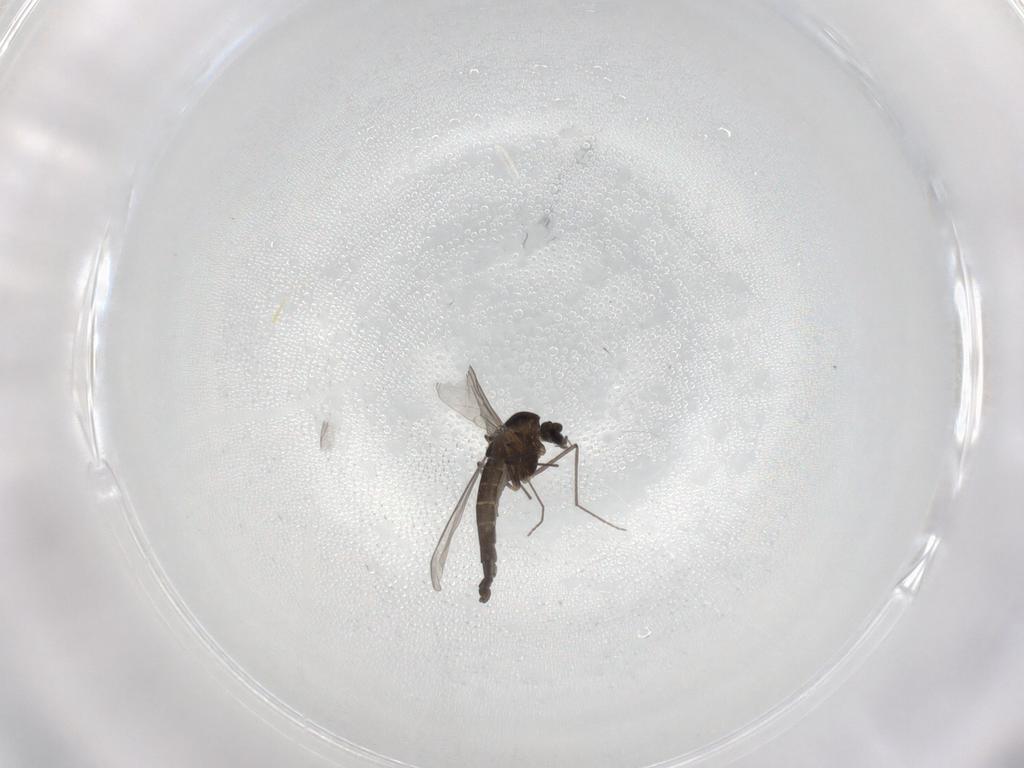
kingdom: Animalia
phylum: Arthropoda
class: Insecta
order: Diptera
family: Chironomidae
